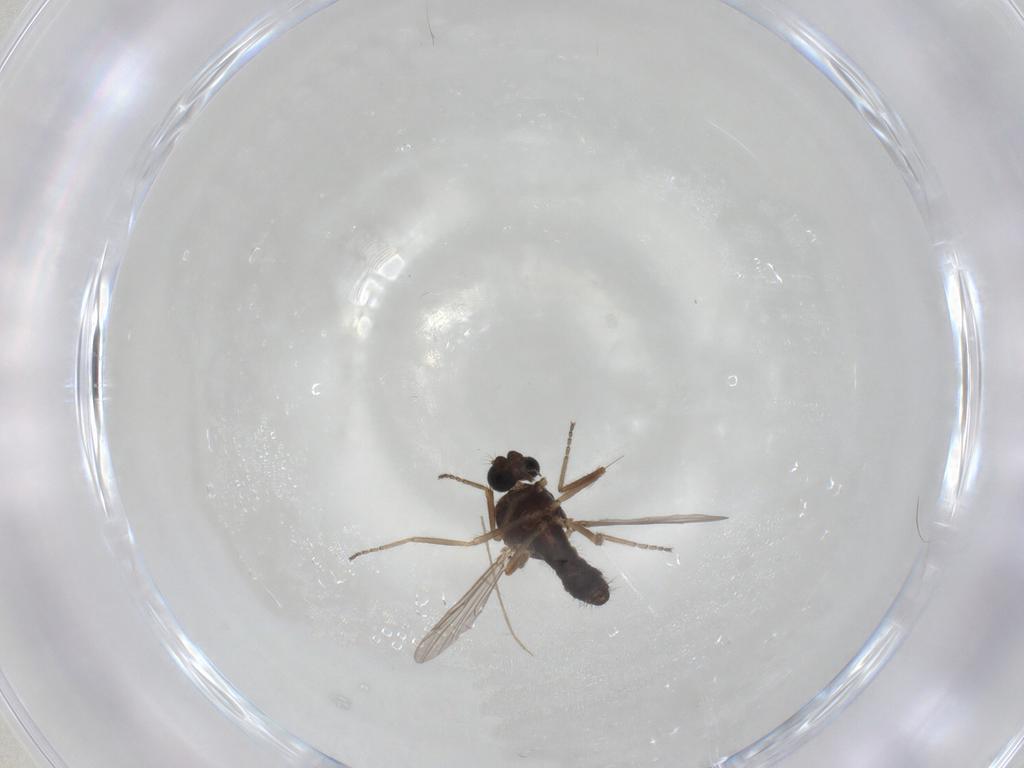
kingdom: Animalia
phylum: Arthropoda
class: Insecta
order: Diptera
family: Ceratopogonidae
